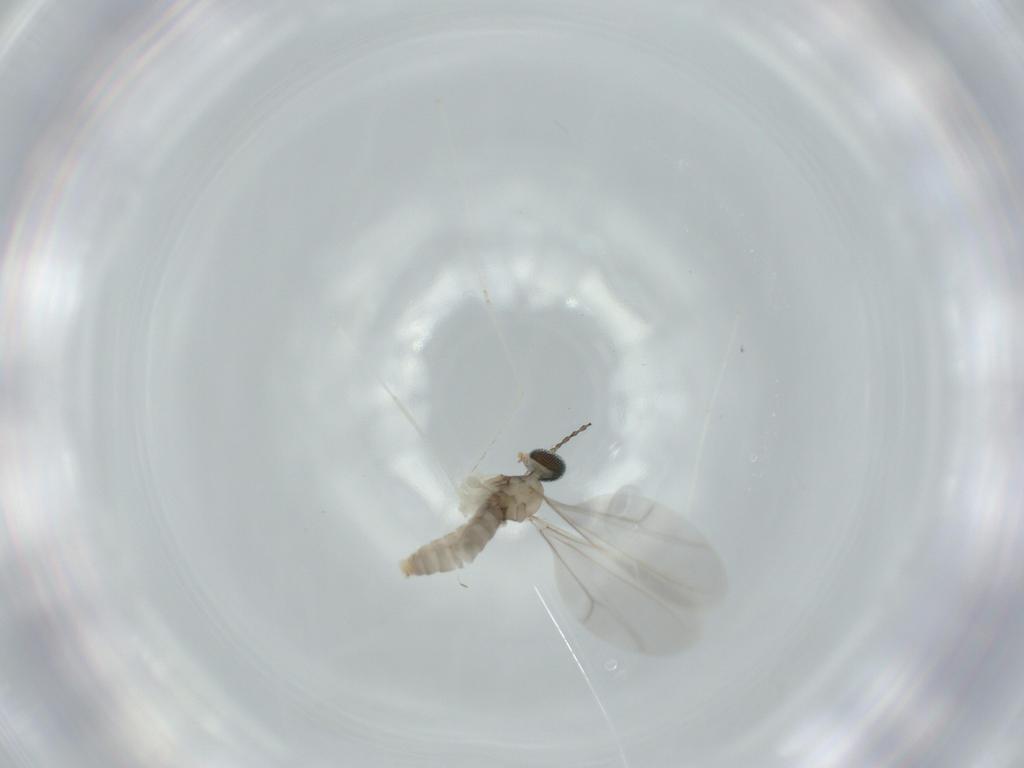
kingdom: Animalia
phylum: Arthropoda
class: Insecta
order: Diptera
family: Cecidomyiidae
